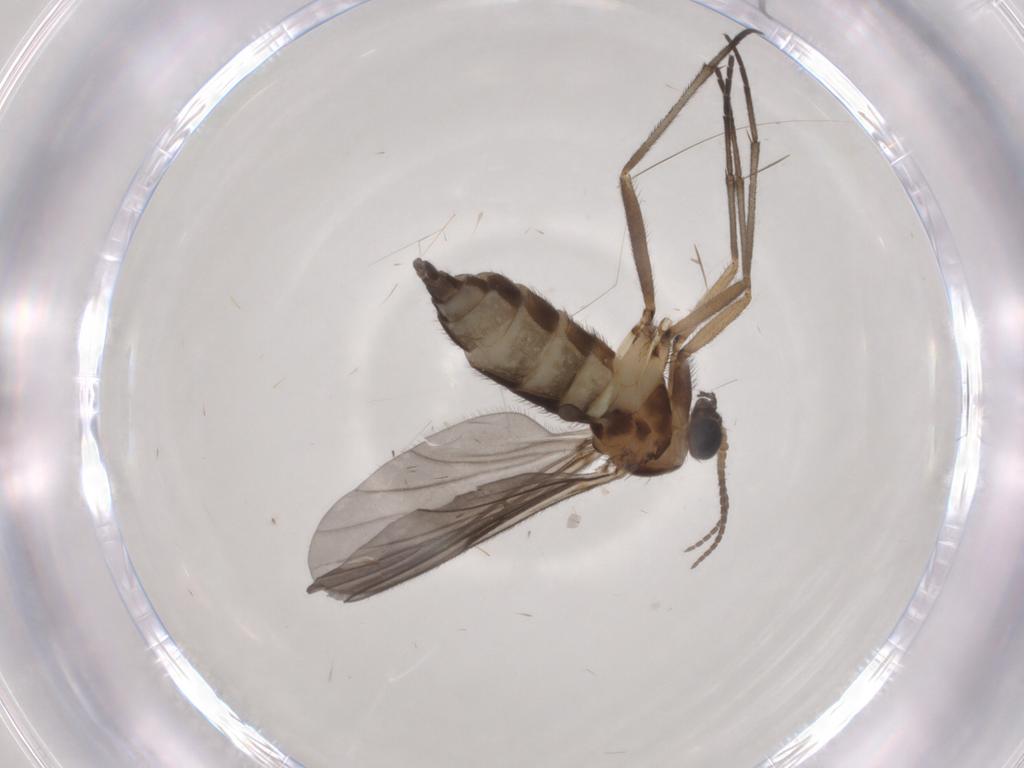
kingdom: Animalia
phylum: Arthropoda
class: Insecta
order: Diptera
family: Sciaridae
